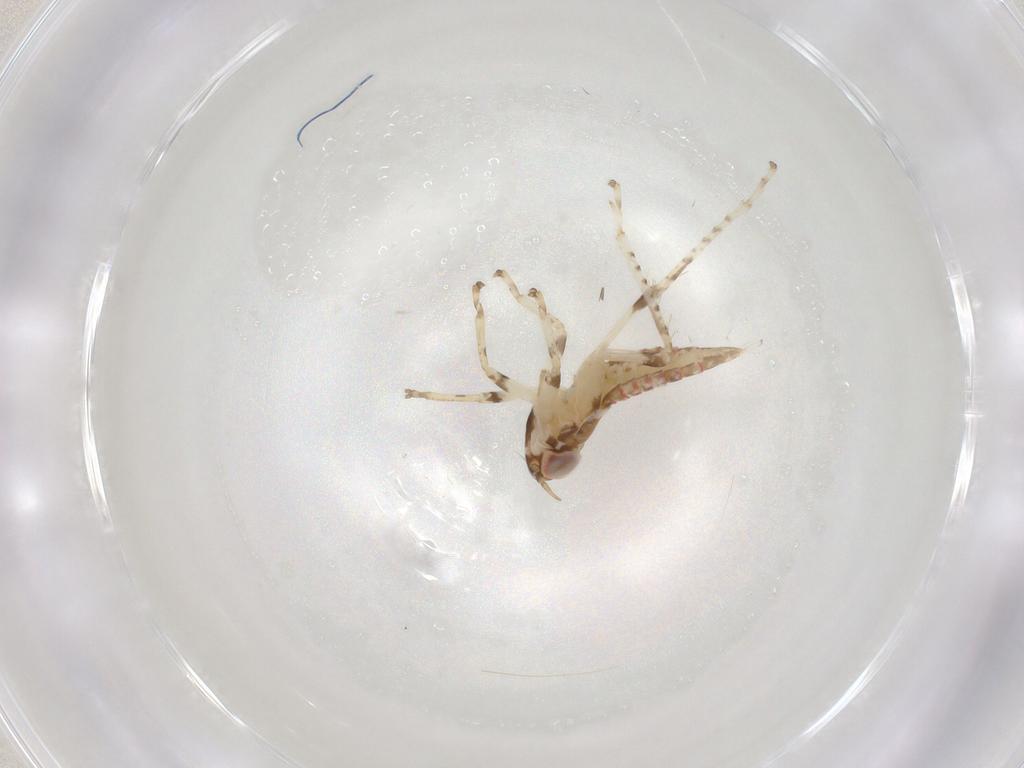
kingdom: Animalia
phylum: Arthropoda
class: Insecta
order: Hemiptera
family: Cicadellidae
